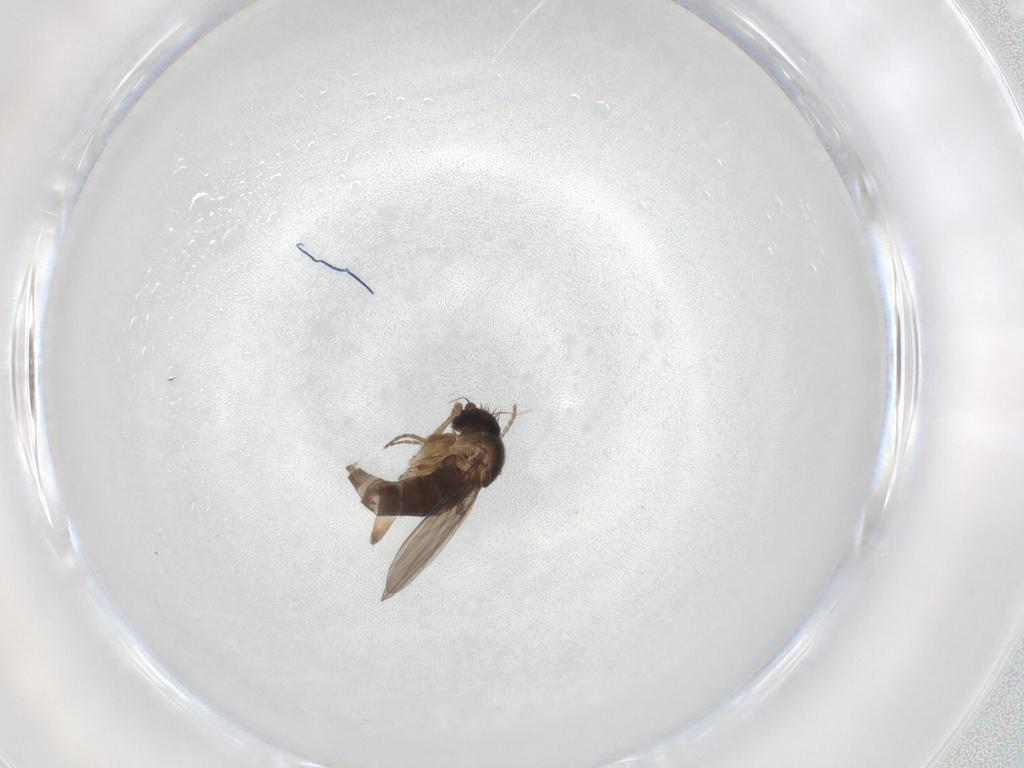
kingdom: Animalia
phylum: Arthropoda
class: Insecta
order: Diptera
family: Phoridae
